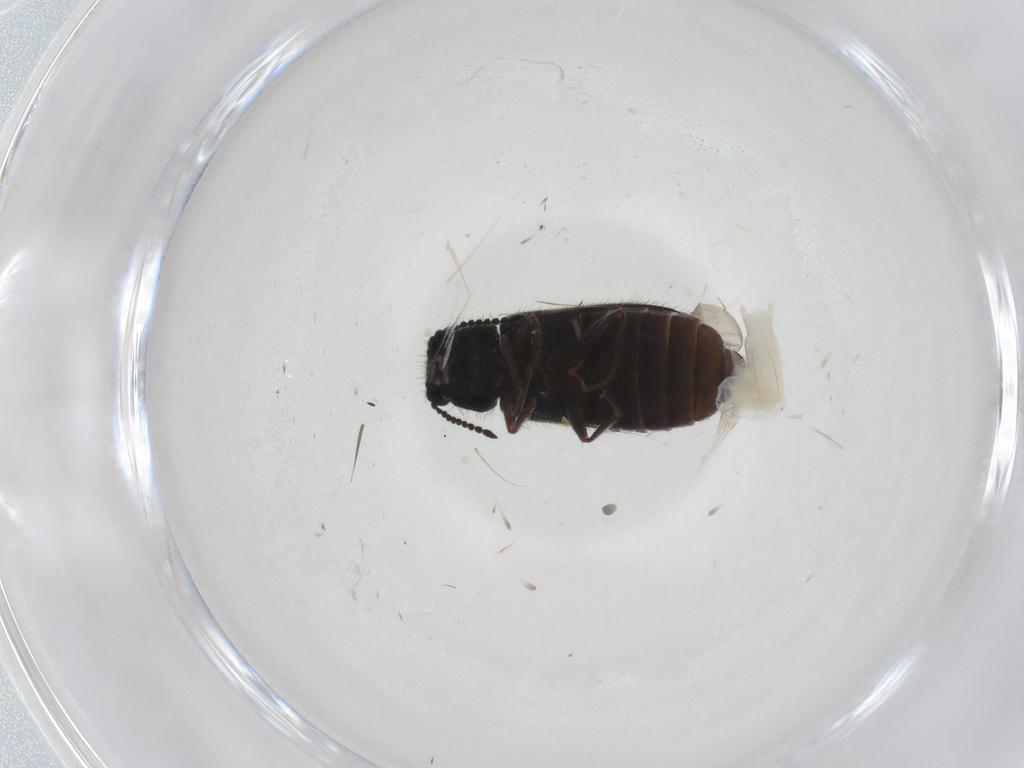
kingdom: Animalia
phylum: Arthropoda
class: Insecta
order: Coleoptera
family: Melyridae
